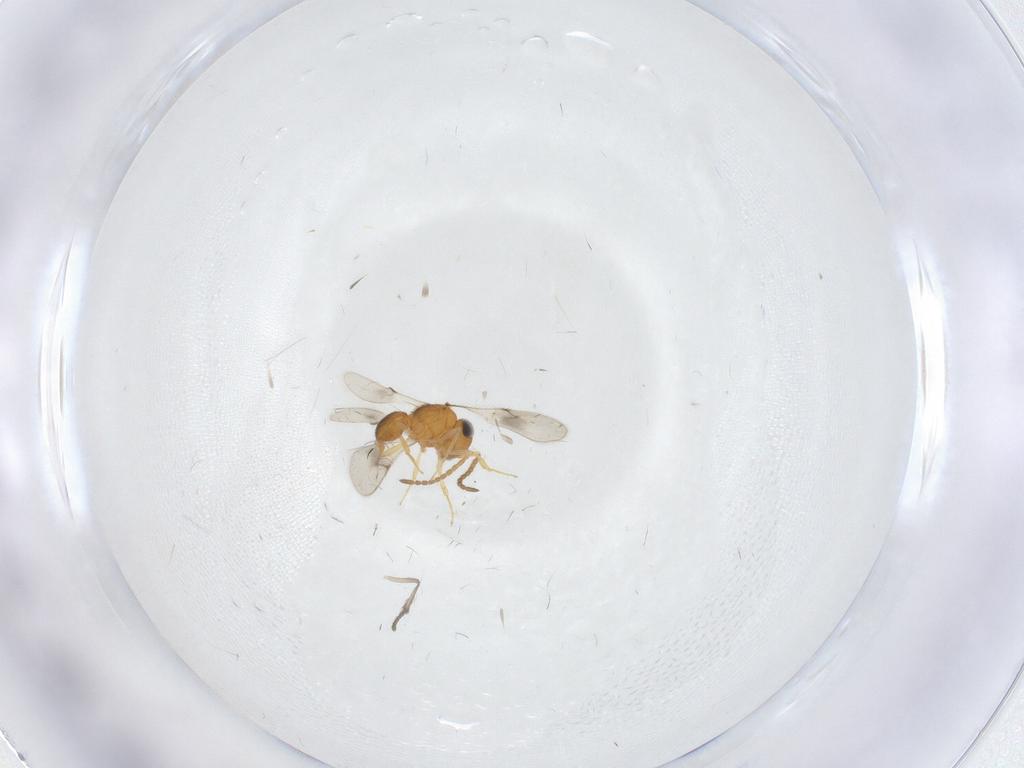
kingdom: Animalia
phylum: Arthropoda
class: Insecta
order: Hymenoptera
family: Scelionidae
